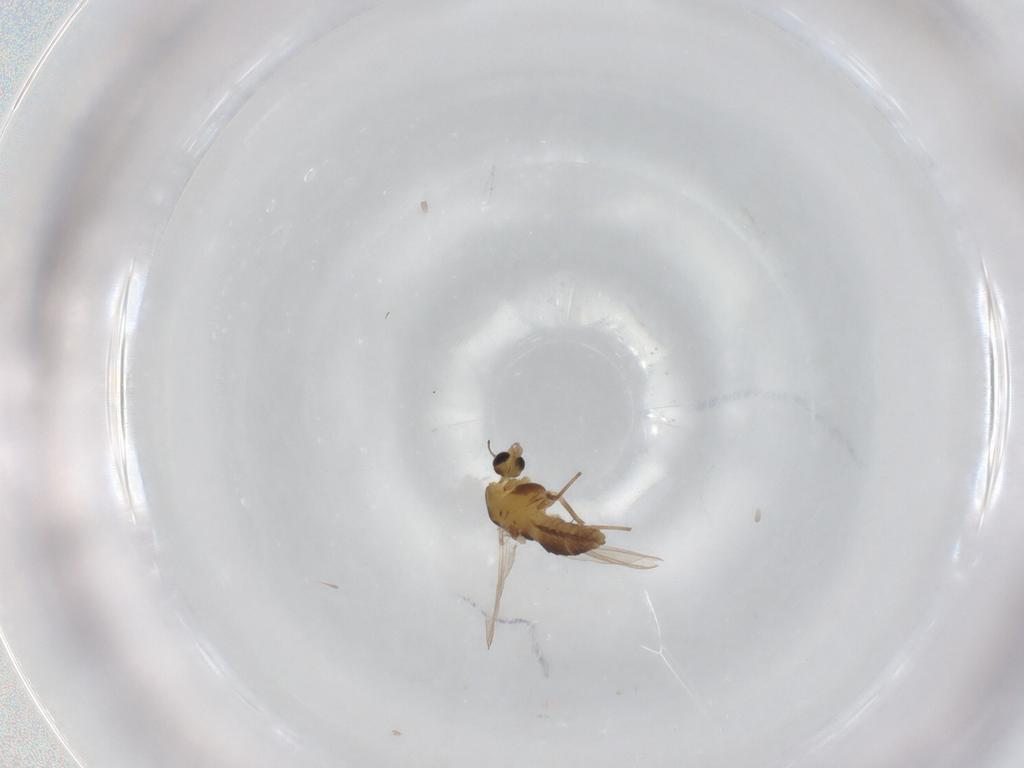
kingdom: Animalia
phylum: Arthropoda
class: Insecta
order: Diptera
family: Chironomidae
